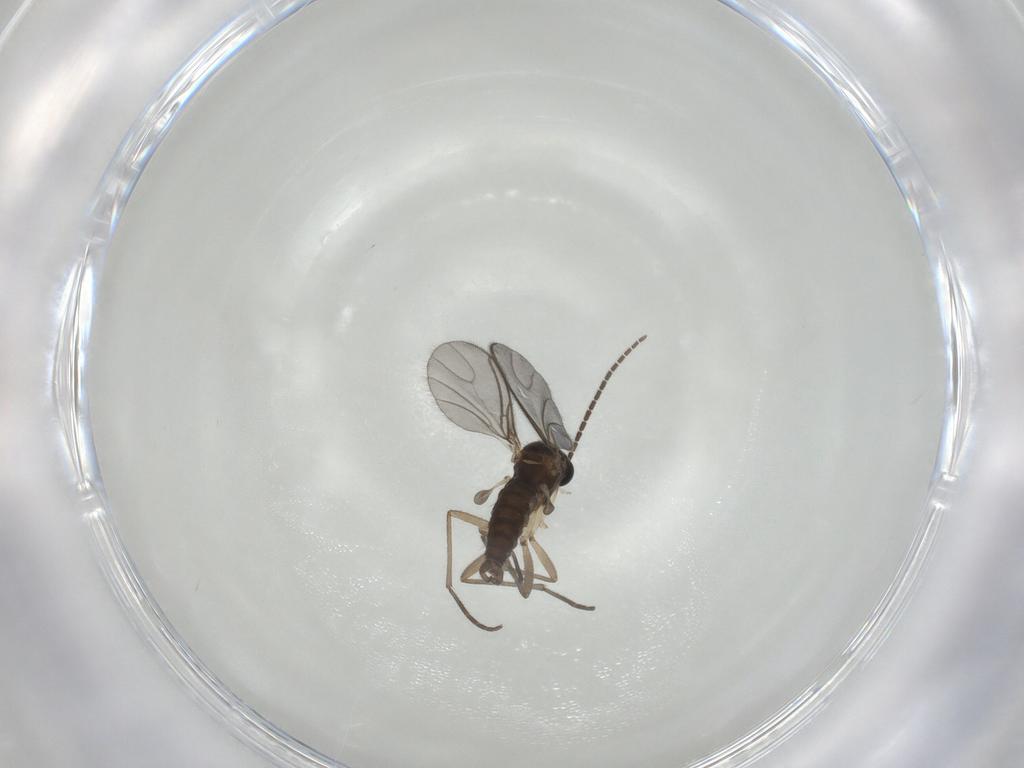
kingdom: Animalia
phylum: Arthropoda
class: Insecta
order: Diptera
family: Sciaridae
